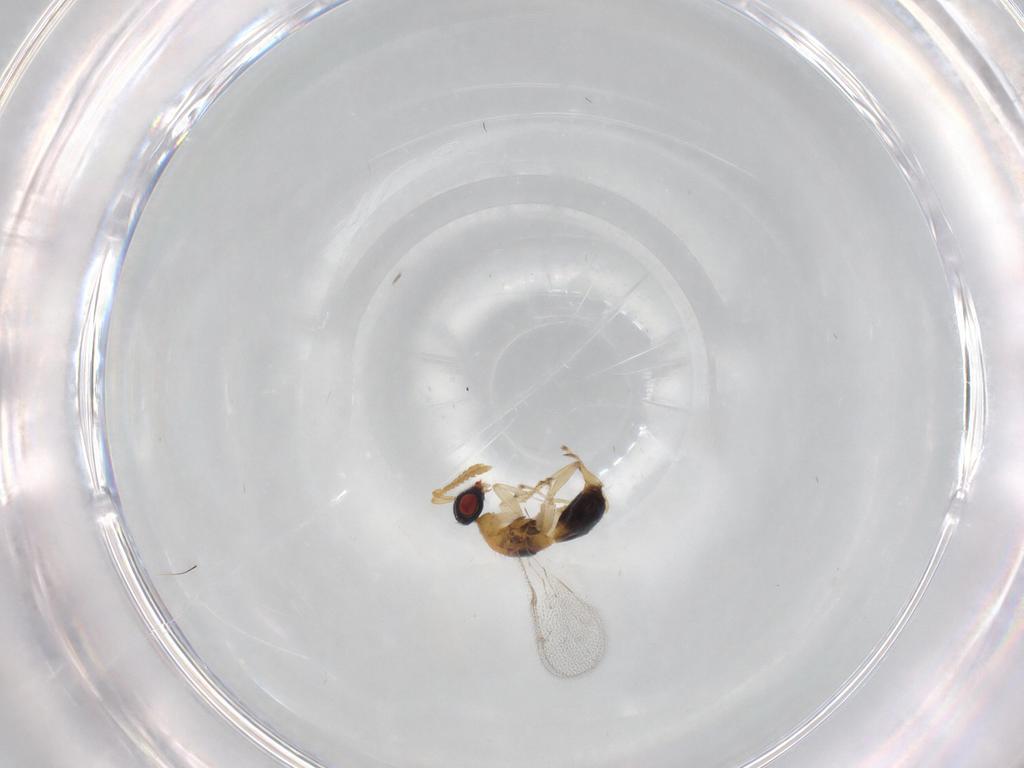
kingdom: Animalia
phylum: Arthropoda
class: Insecta
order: Hymenoptera
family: Torymidae
